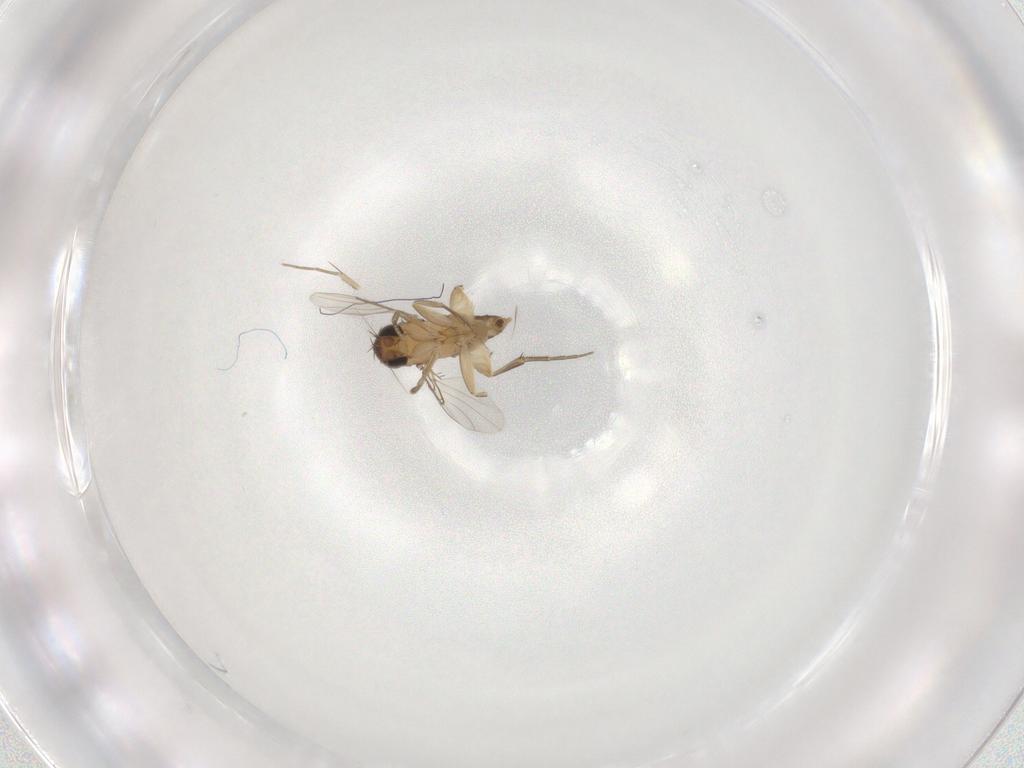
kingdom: Animalia
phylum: Arthropoda
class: Insecta
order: Diptera
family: Phoridae
